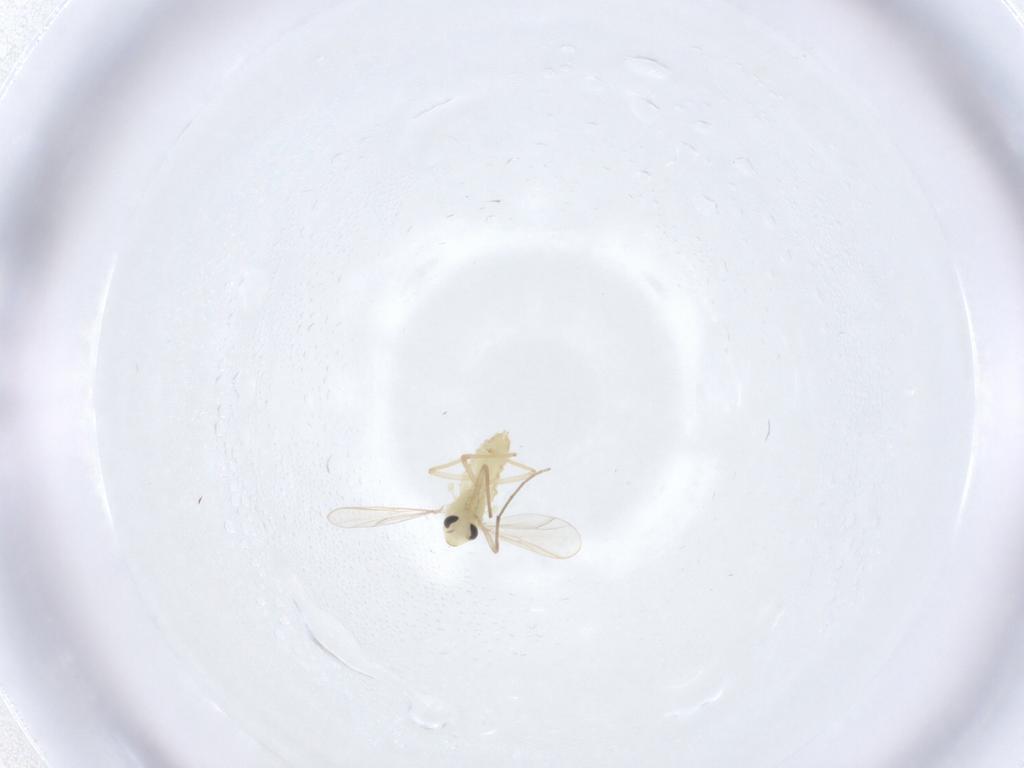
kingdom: Animalia
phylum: Arthropoda
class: Insecta
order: Diptera
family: Chironomidae
